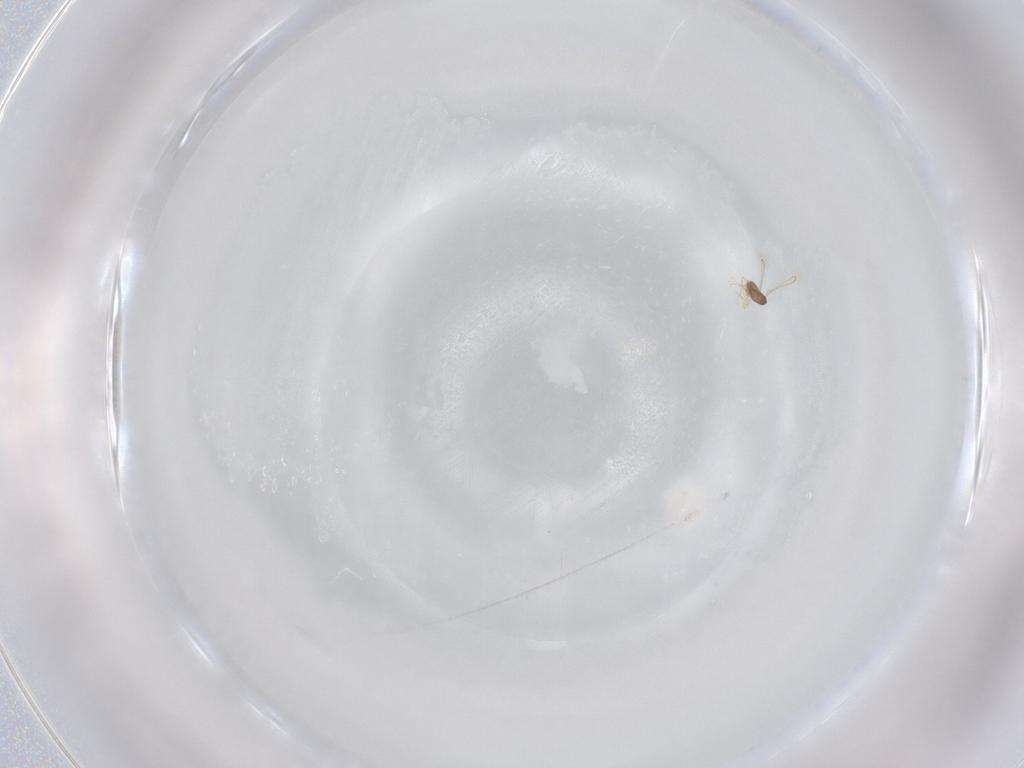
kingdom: Animalia
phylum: Arthropoda
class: Insecta
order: Hymenoptera
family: Mymaridae
